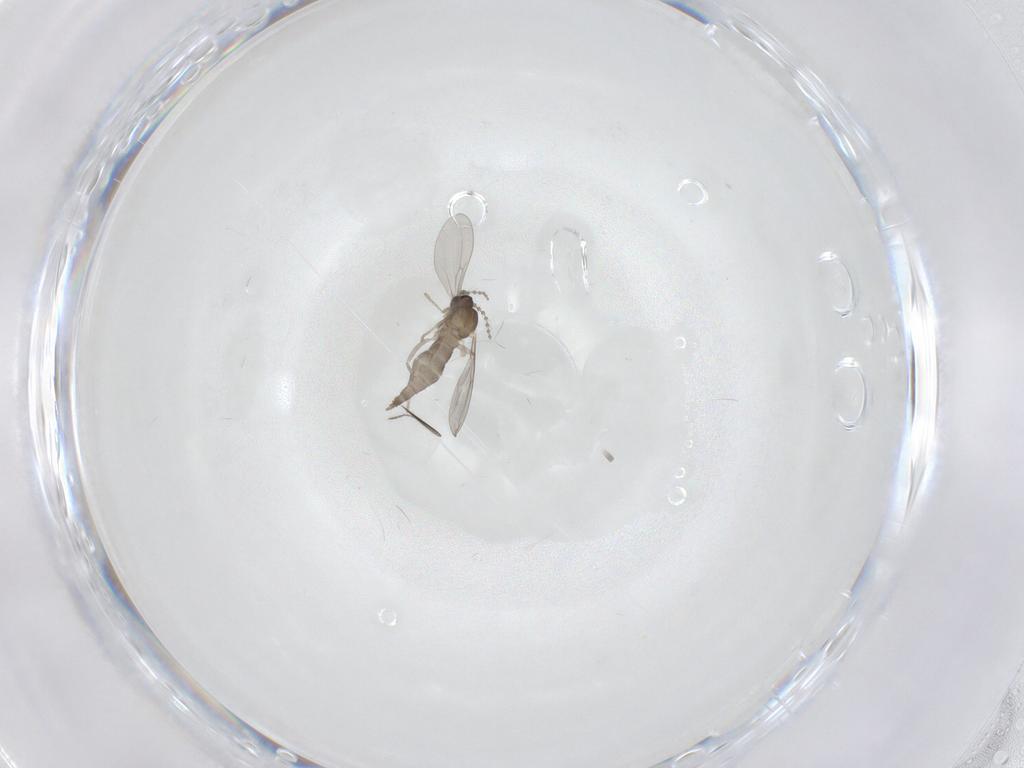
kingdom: Animalia
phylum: Arthropoda
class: Insecta
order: Diptera
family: Cecidomyiidae
